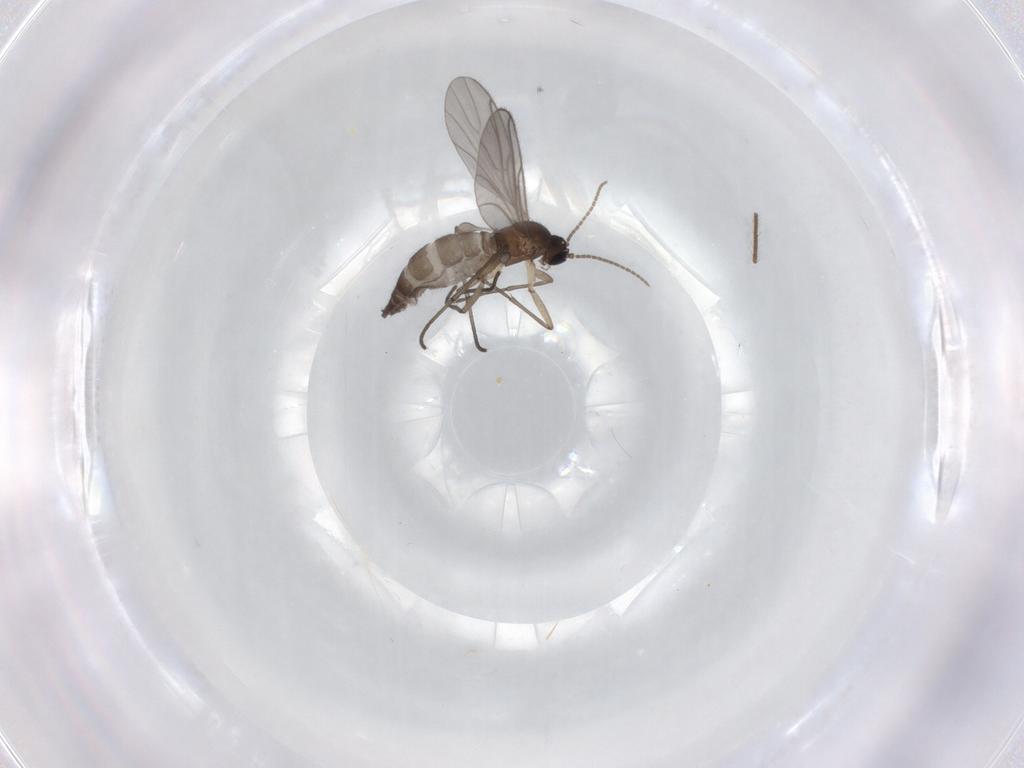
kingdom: Animalia
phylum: Arthropoda
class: Insecta
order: Diptera
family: Sciaridae
